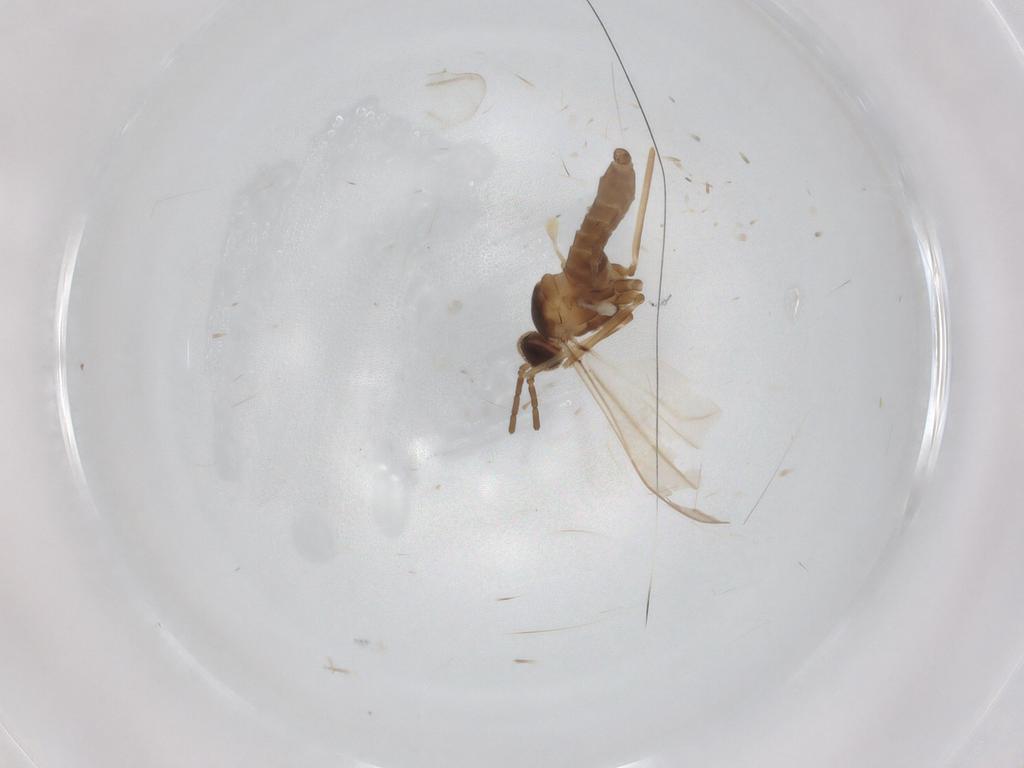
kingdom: Animalia
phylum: Arthropoda
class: Insecta
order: Diptera
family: Cecidomyiidae
